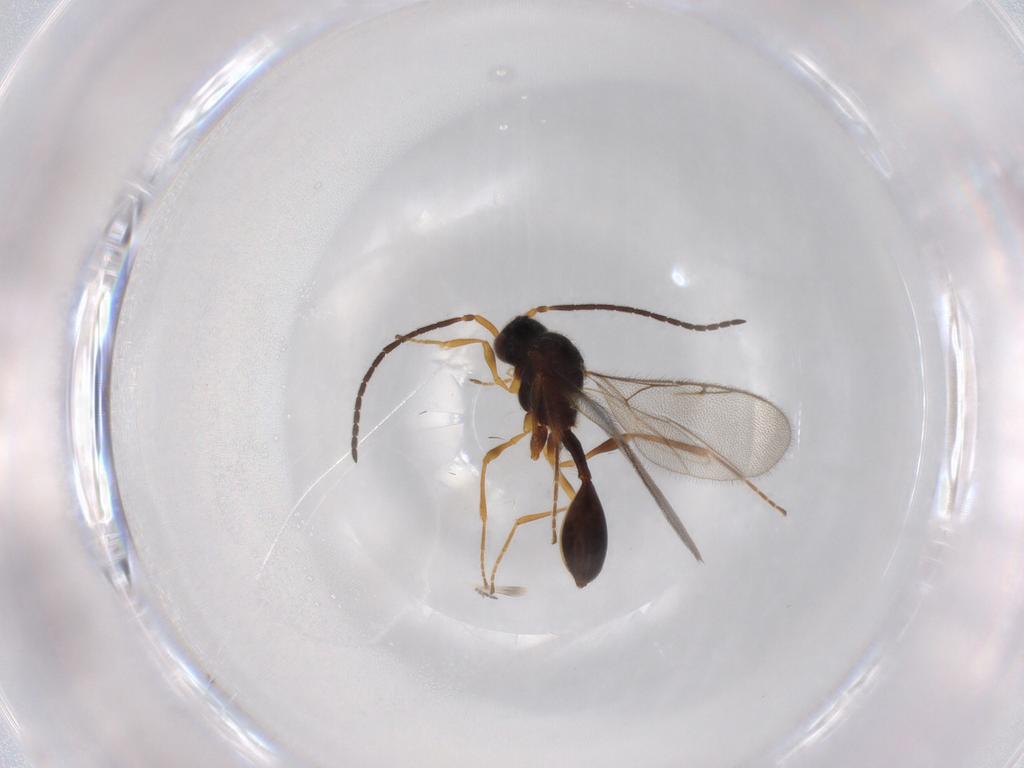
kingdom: Animalia
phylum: Arthropoda
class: Insecta
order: Hymenoptera
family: Diapriidae
